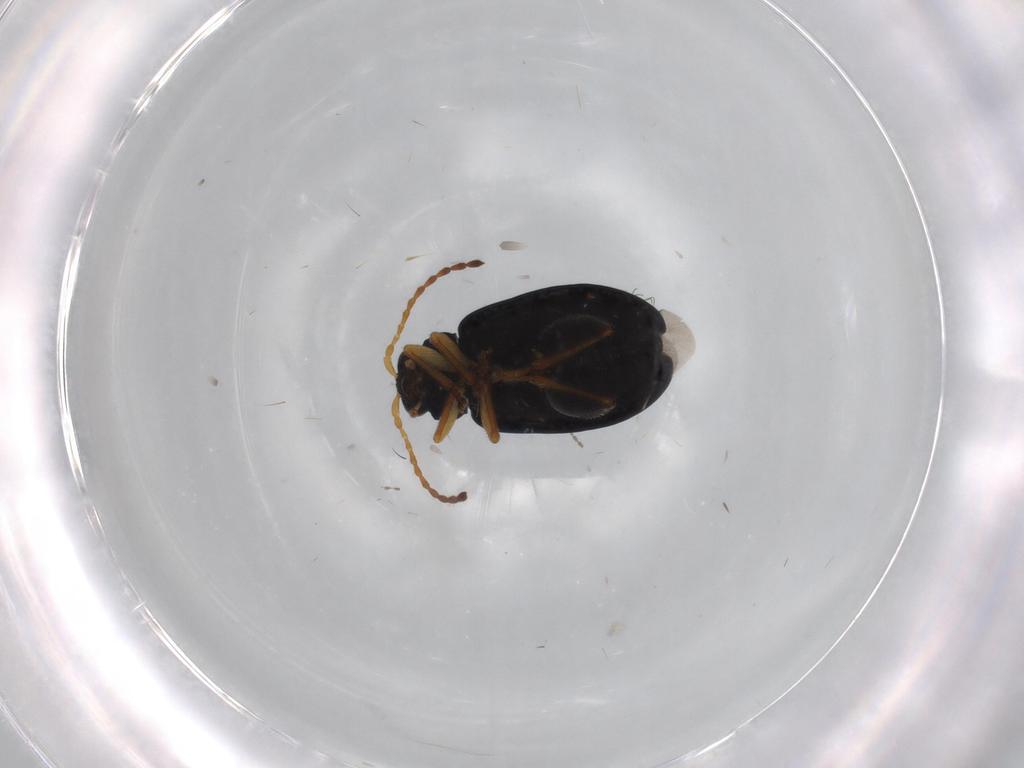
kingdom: Animalia
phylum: Arthropoda
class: Insecta
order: Coleoptera
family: Chrysomelidae
